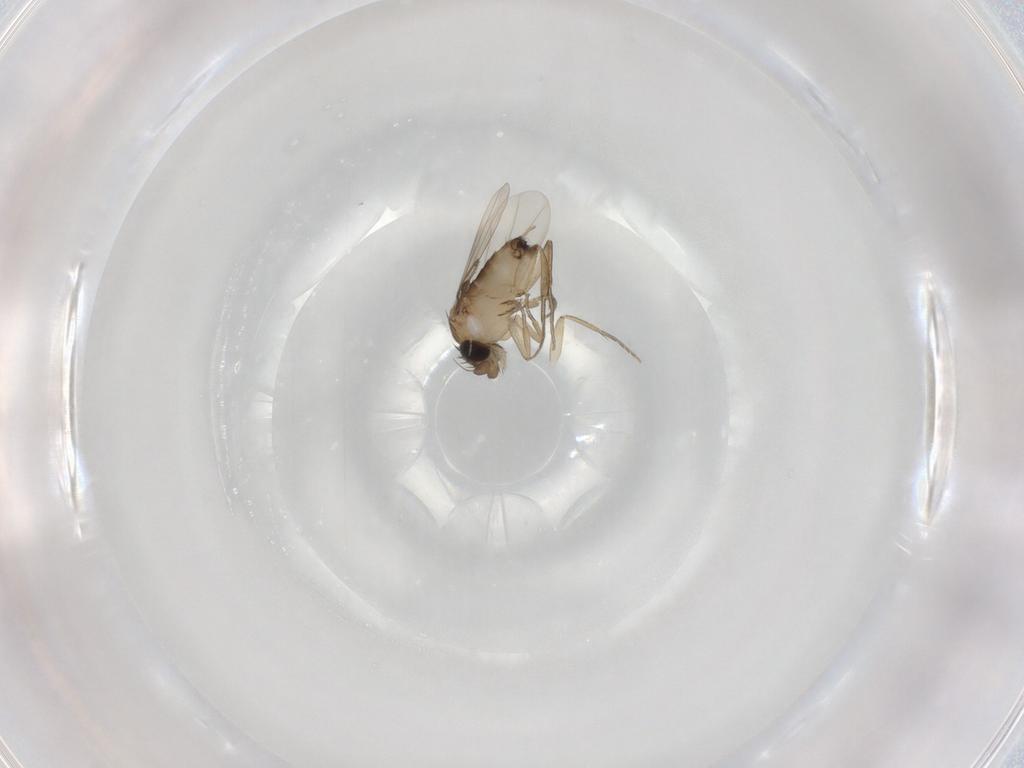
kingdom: Animalia
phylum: Arthropoda
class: Insecta
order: Diptera
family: Phoridae
